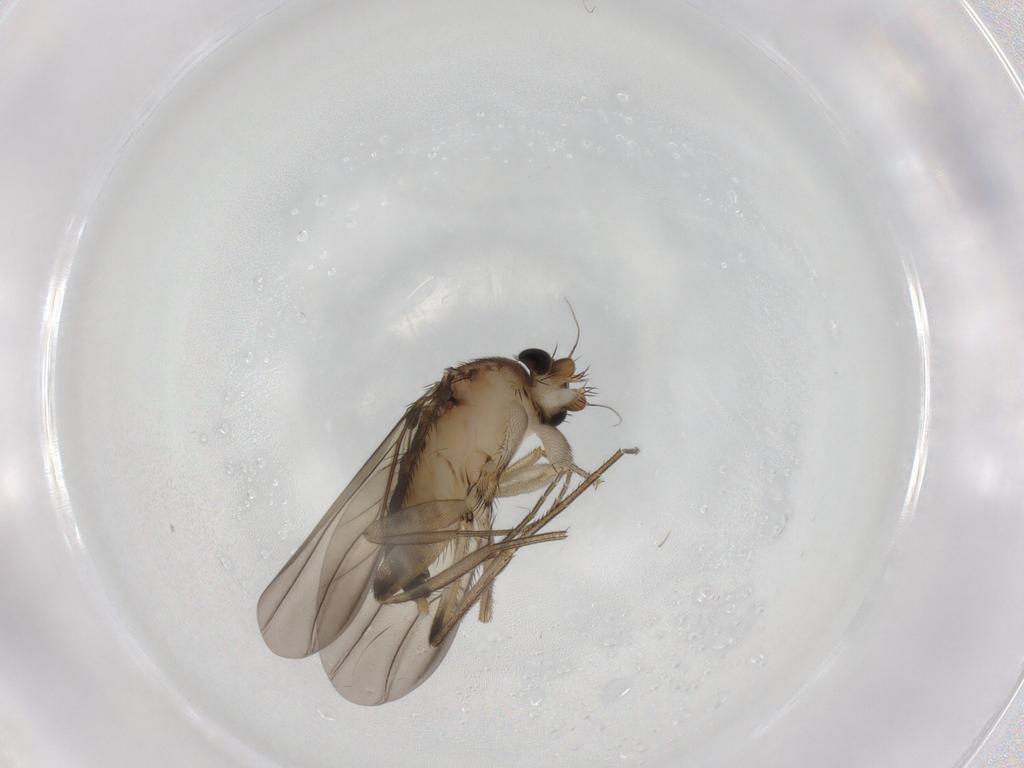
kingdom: Animalia
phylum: Arthropoda
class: Insecta
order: Diptera
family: Phoridae
